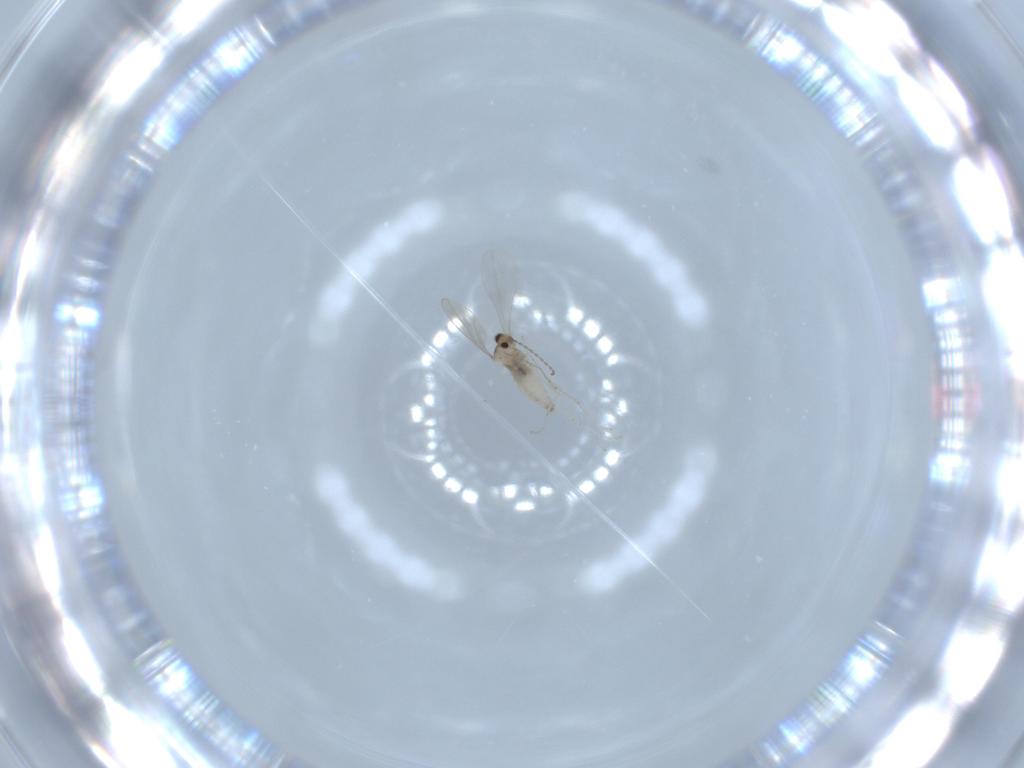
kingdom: Animalia
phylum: Arthropoda
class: Insecta
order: Diptera
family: Cecidomyiidae
